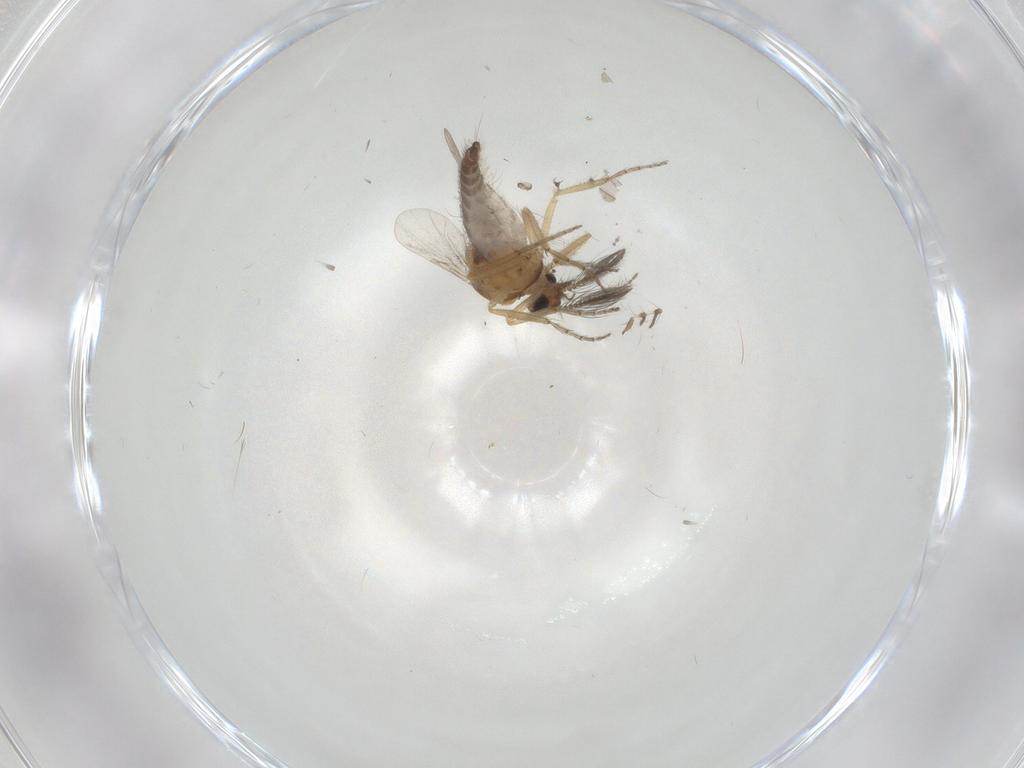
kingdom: Animalia
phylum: Arthropoda
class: Insecta
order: Diptera
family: Ceratopogonidae
